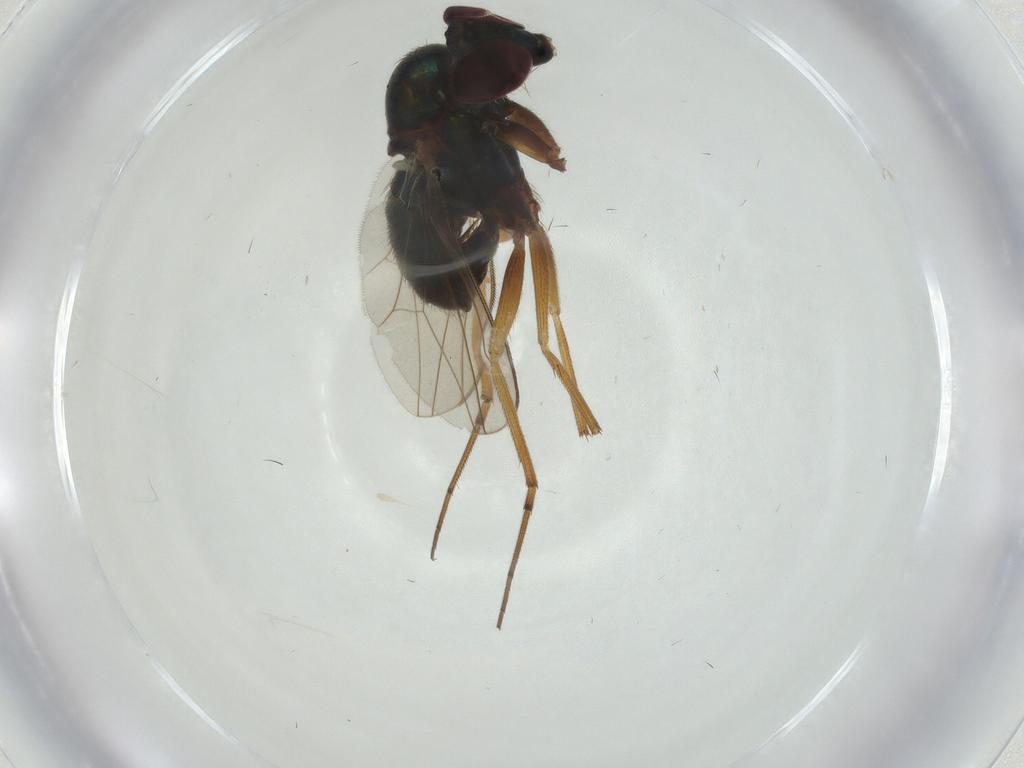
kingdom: Animalia
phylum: Arthropoda
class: Insecta
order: Diptera
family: Dolichopodidae
